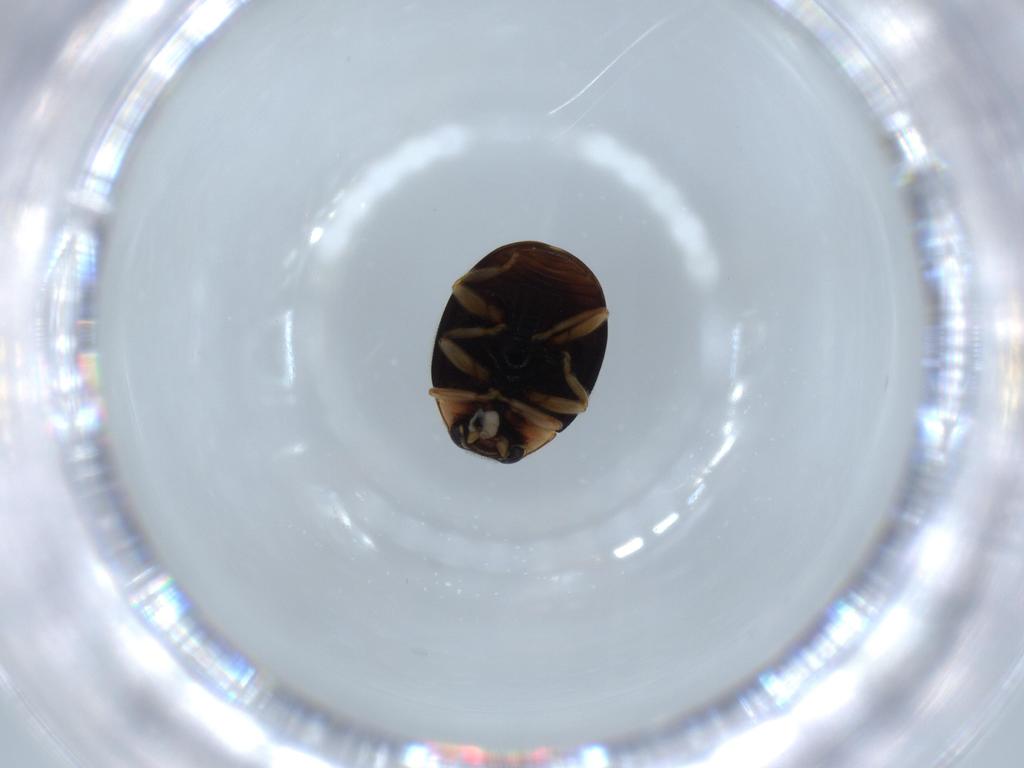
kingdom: Animalia
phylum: Arthropoda
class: Insecta
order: Coleoptera
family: Coccinellidae
